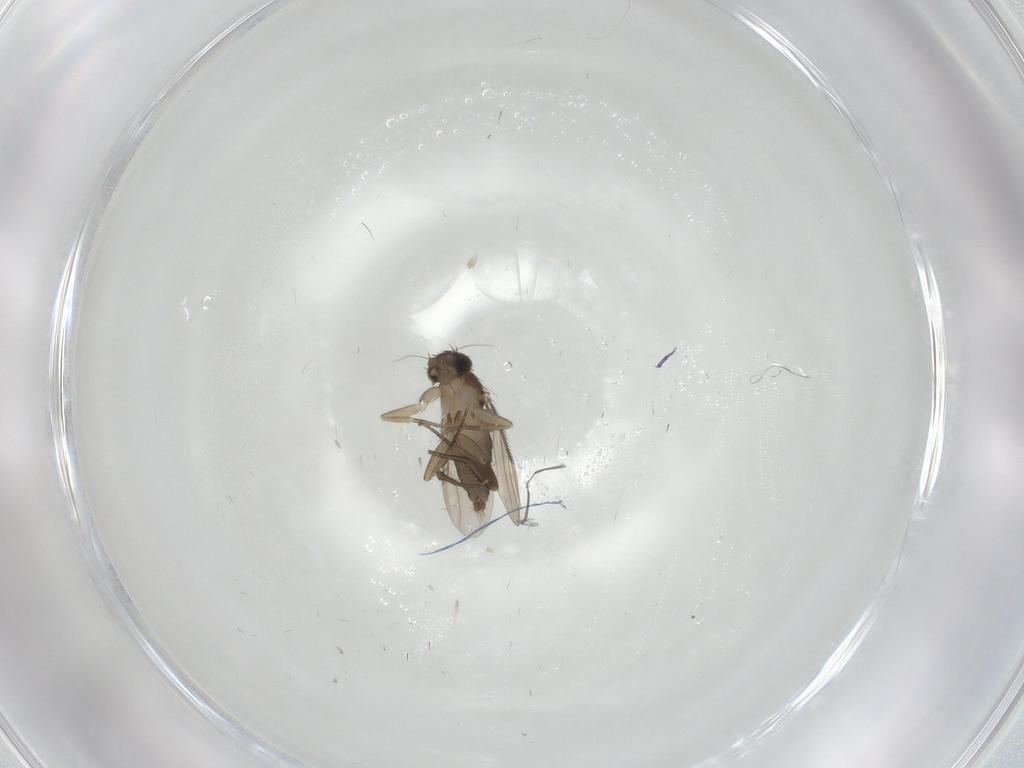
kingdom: Animalia
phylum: Arthropoda
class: Insecta
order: Diptera
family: Phoridae
